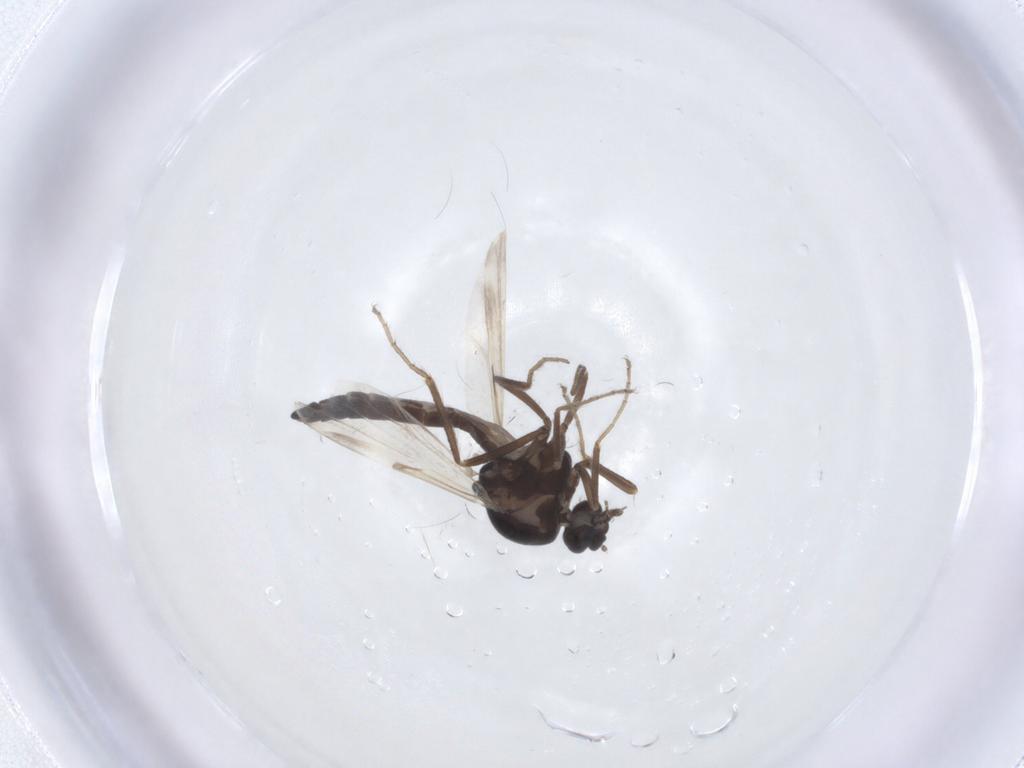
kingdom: Animalia
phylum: Arthropoda
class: Insecta
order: Diptera
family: Ceratopogonidae
